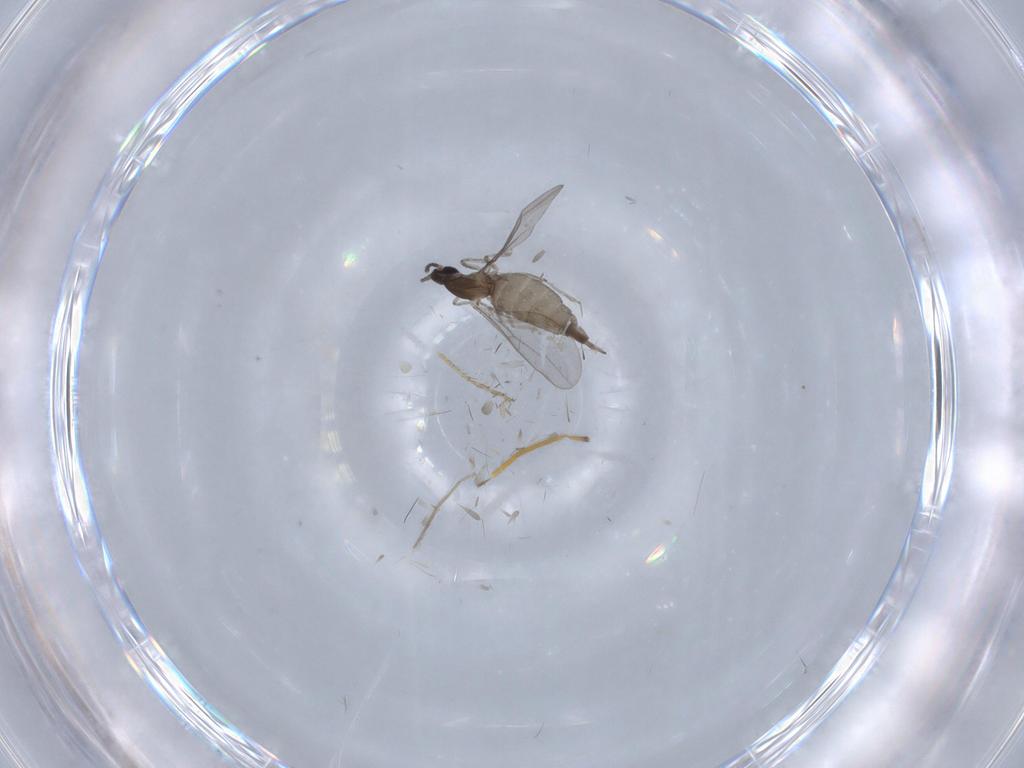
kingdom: Animalia
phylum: Arthropoda
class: Insecta
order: Diptera
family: Cecidomyiidae
